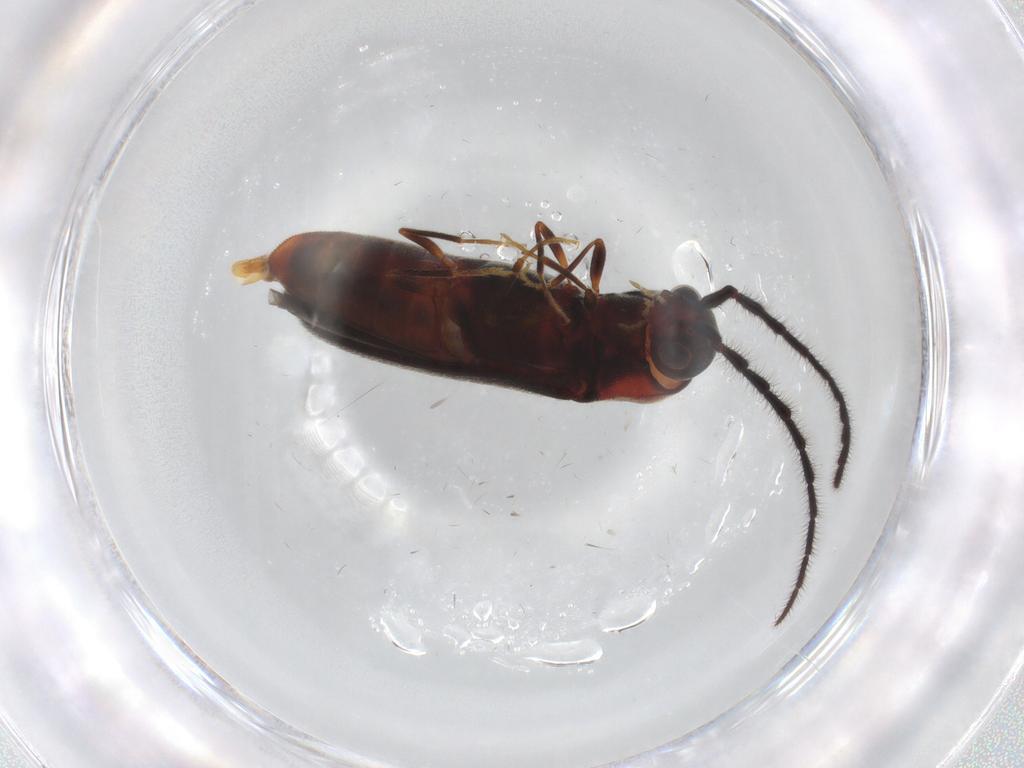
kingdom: Animalia
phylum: Arthropoda
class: Insecta
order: Coleoptera
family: Eucnemidae
